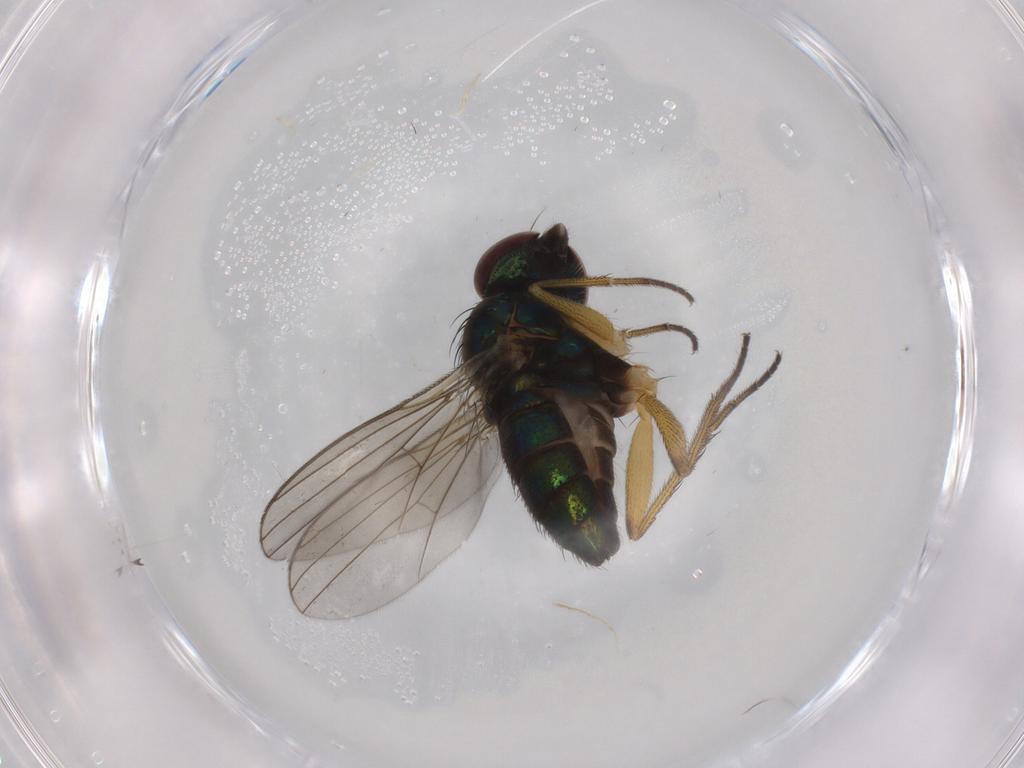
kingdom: Animalia
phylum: Arthropoda
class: Insecta
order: Diptera
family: Dolichopodidae
